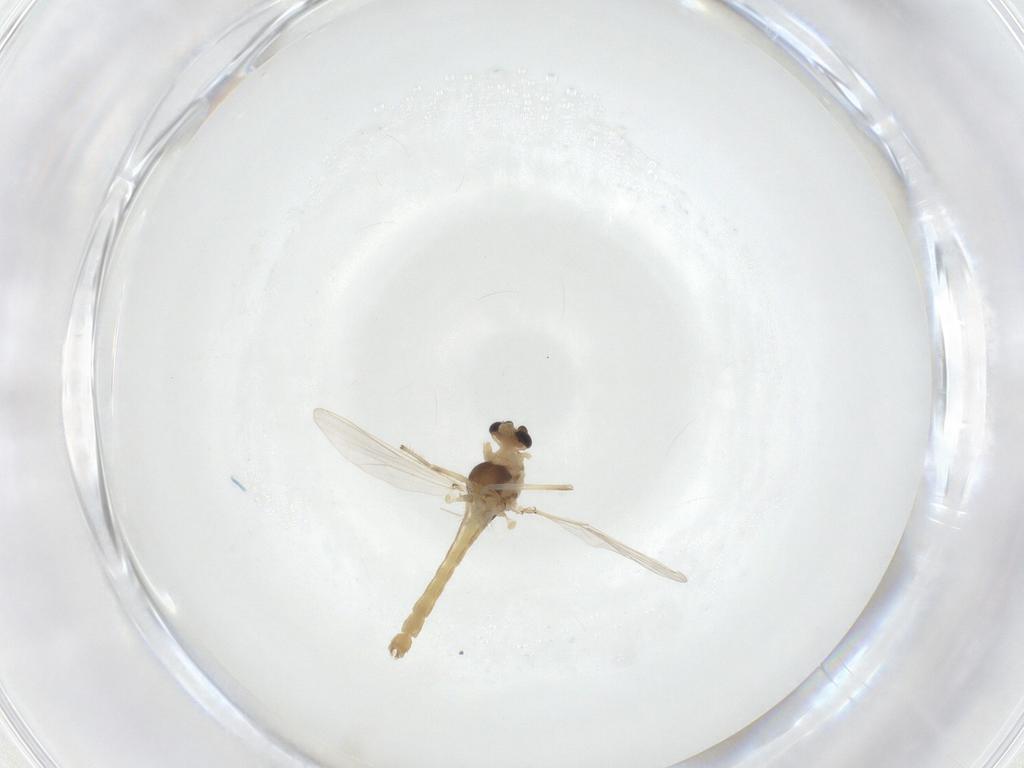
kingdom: Animalia
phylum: Arthropoda
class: Insecta
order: Diptera
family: Chironomidae
